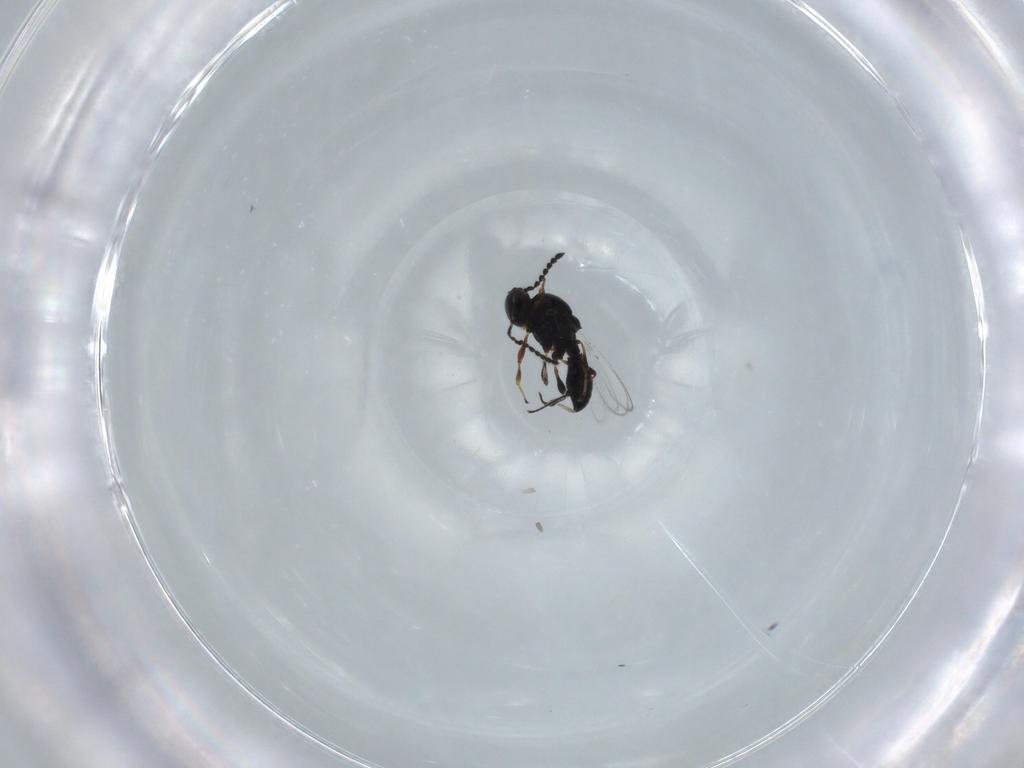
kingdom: Animalia
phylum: Arthropoda
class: Insecta
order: Hymenoptera
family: Platygastridae
